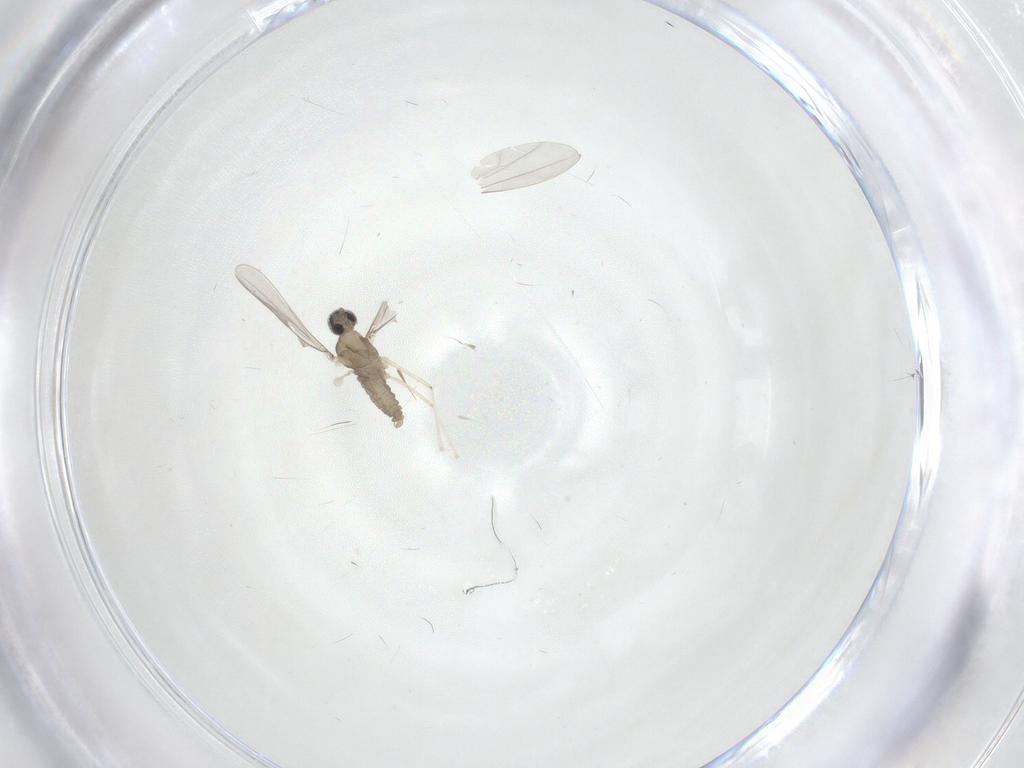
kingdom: Animalia
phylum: Arthropoda
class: Insecta
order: Diptera
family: Cecidomyiidae
